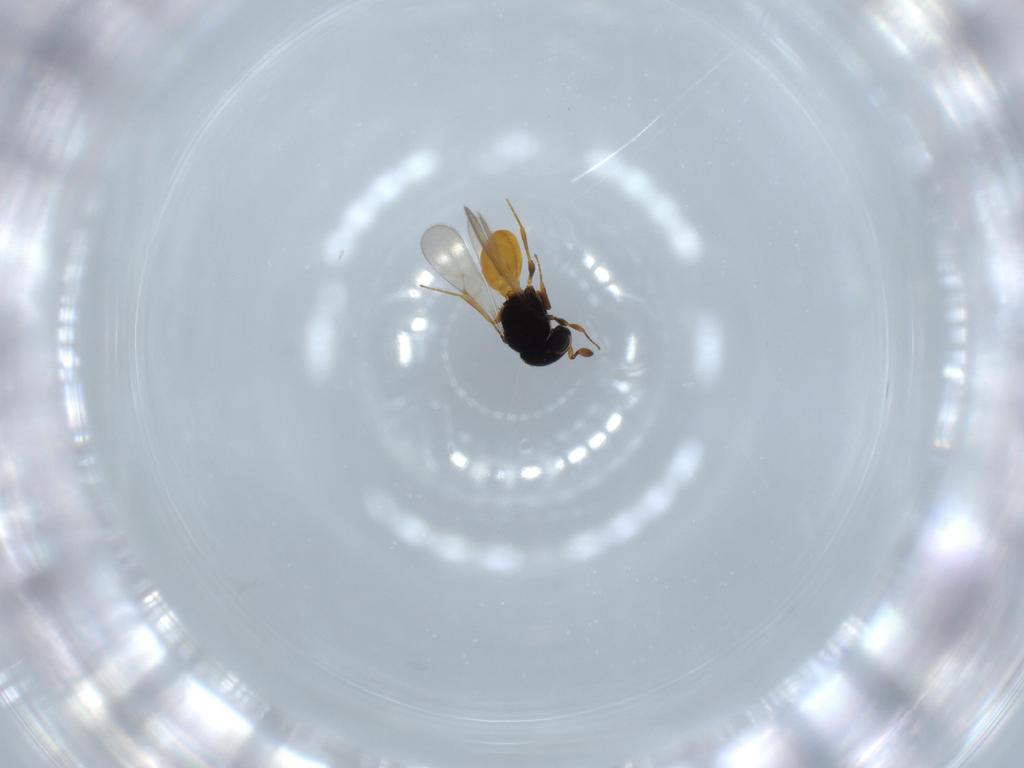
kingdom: Animalia
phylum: Arthropoda
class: Insecta
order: Hymenoptera
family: Scelionidae
